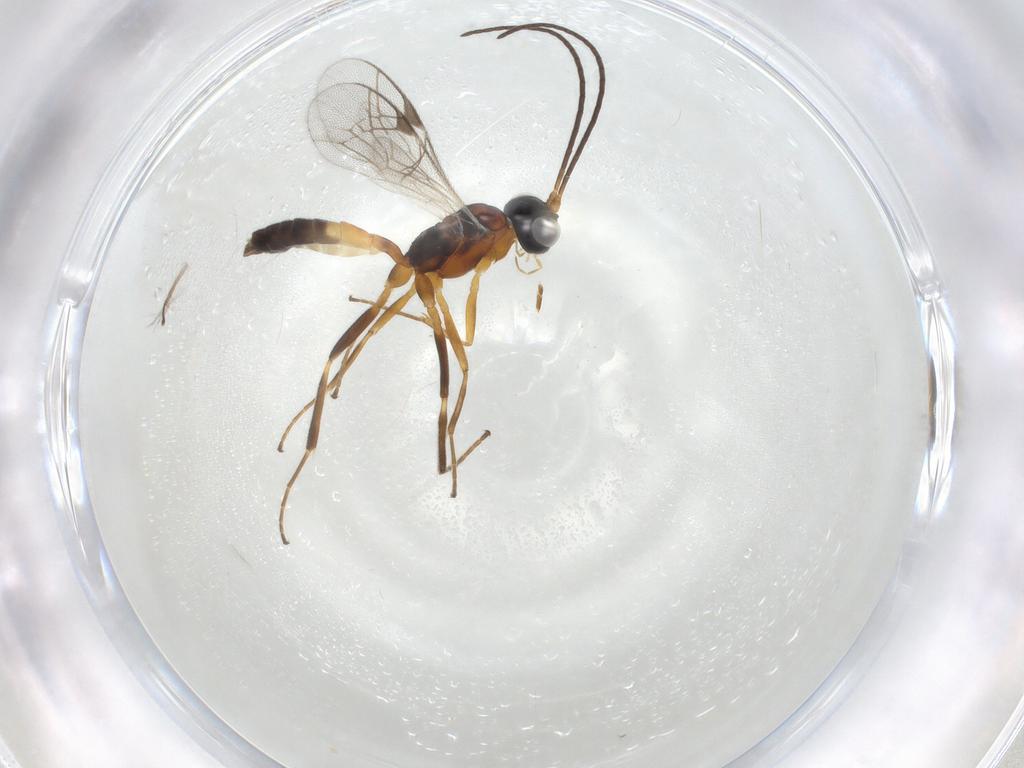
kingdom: Animalia
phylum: Arthropoda
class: Insecta
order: Hymenoptera
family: Ichneumonidae
